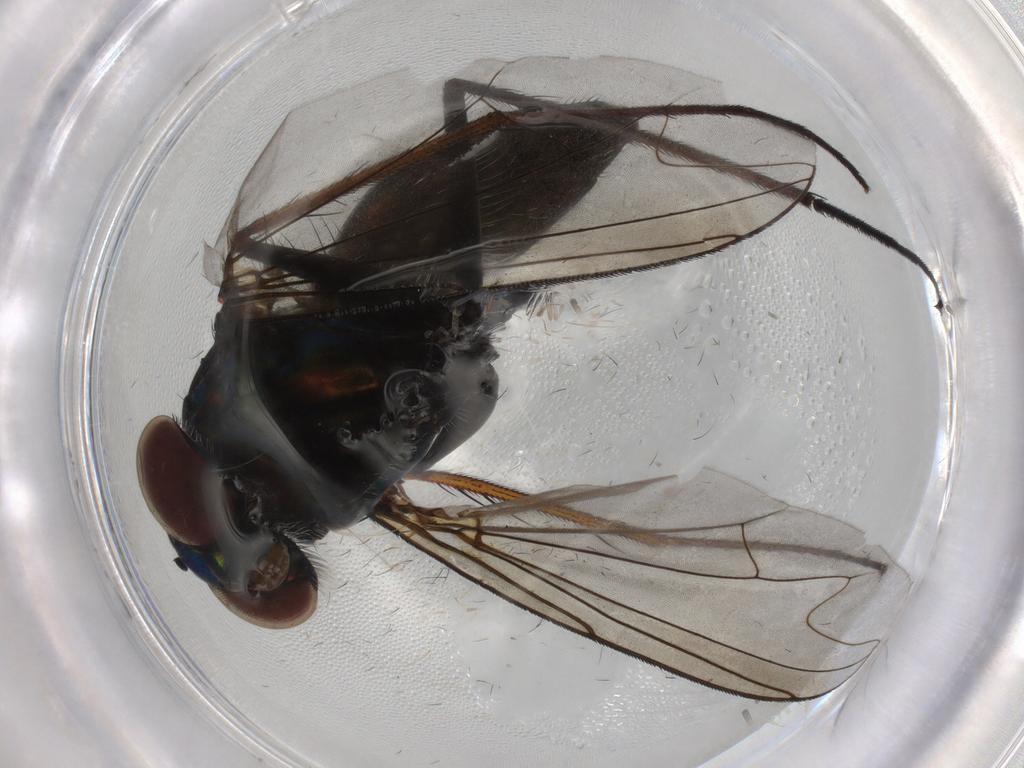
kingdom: Animalia
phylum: Arthropoda
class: Insecta
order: Diptera
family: Dolichopodidae
